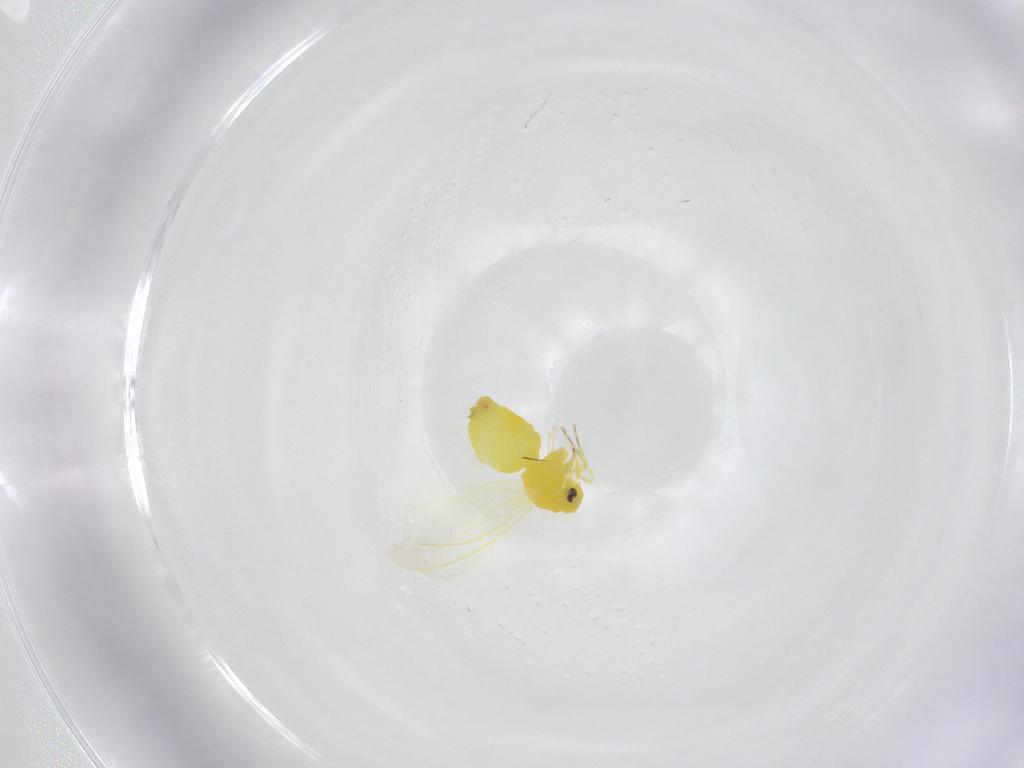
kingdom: Animalia
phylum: Arthropoda
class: Insecta
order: Hemiptera
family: Aleyrodidae
